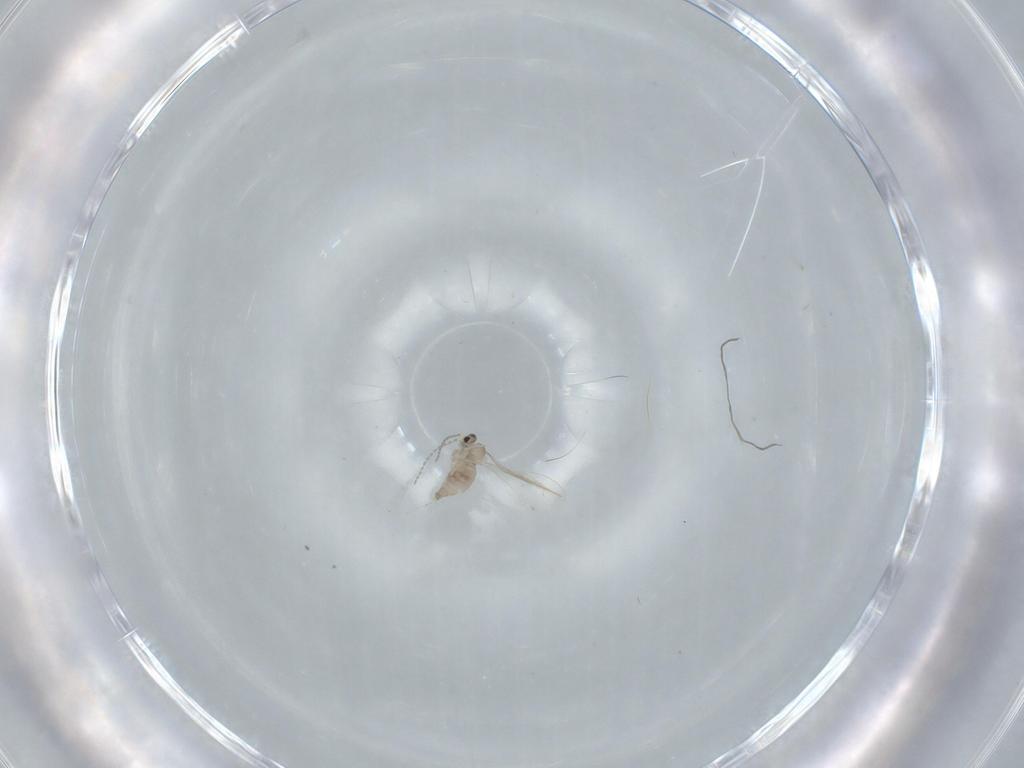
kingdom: Animalia
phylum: Arthropoda
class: Insecta
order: Diptera
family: Cecidomyiidae
